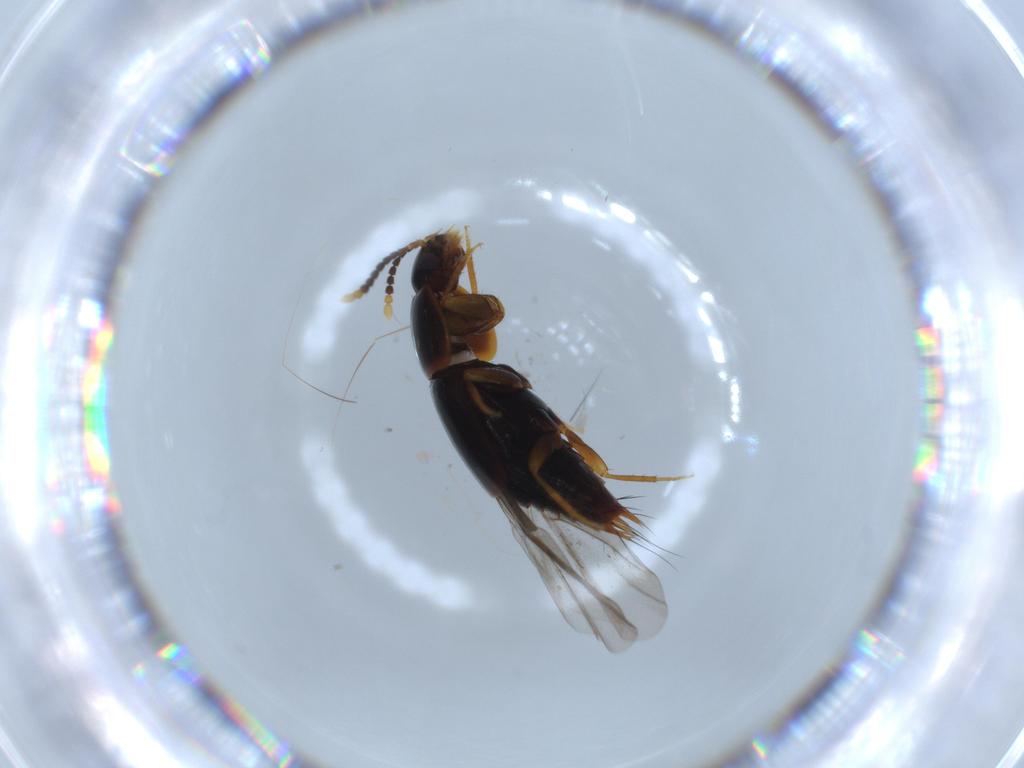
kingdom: Animalia
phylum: Arthropoda
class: Insecta
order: Coleoptera
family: Staphylinidae
